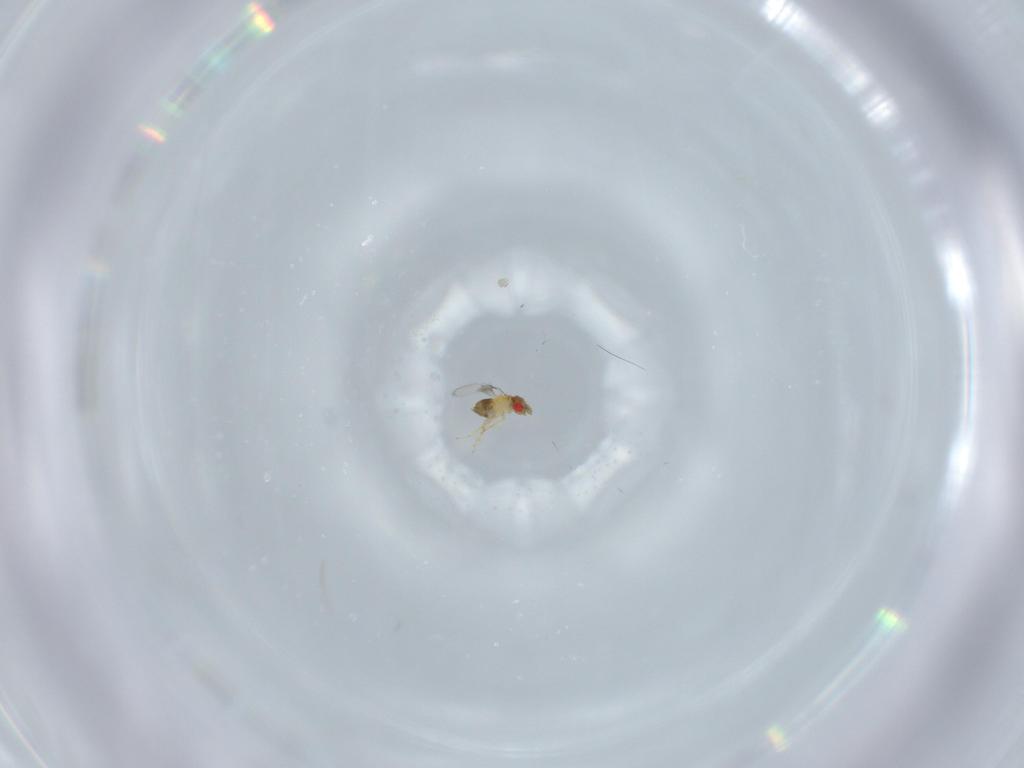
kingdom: Animalia
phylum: Arthropoda
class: Insecta
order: Hymenoptera
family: Trichogrammatidae
